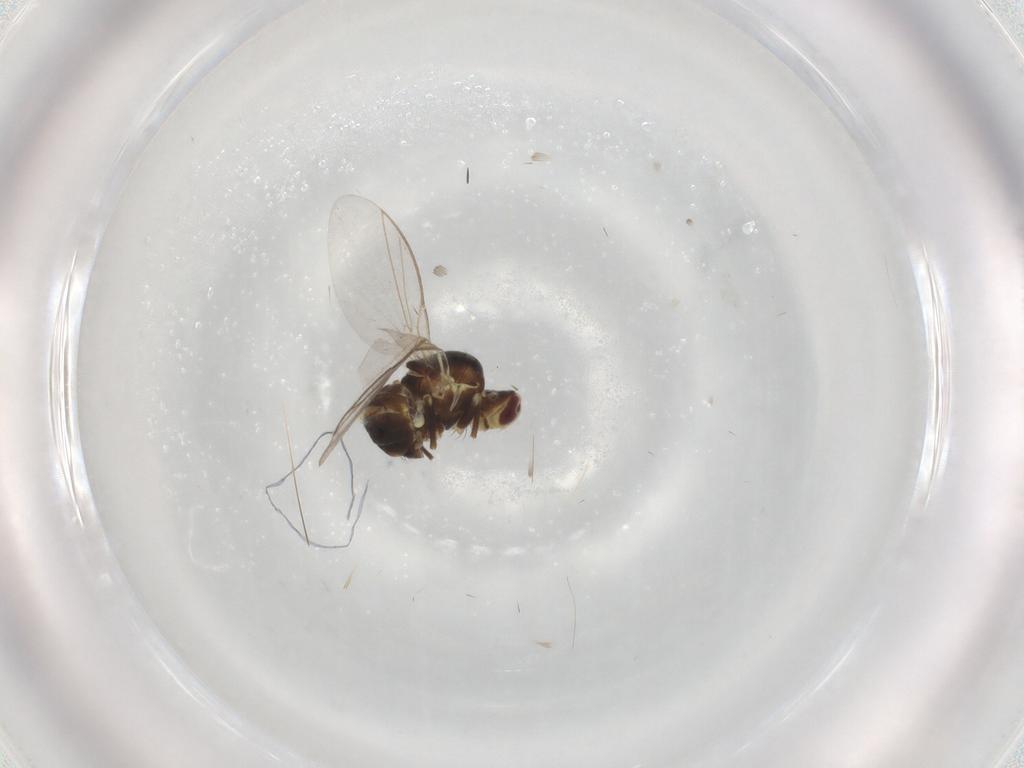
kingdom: Animalia
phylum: Arthropoda
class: Insecta
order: Diptera
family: Agromyzidae
